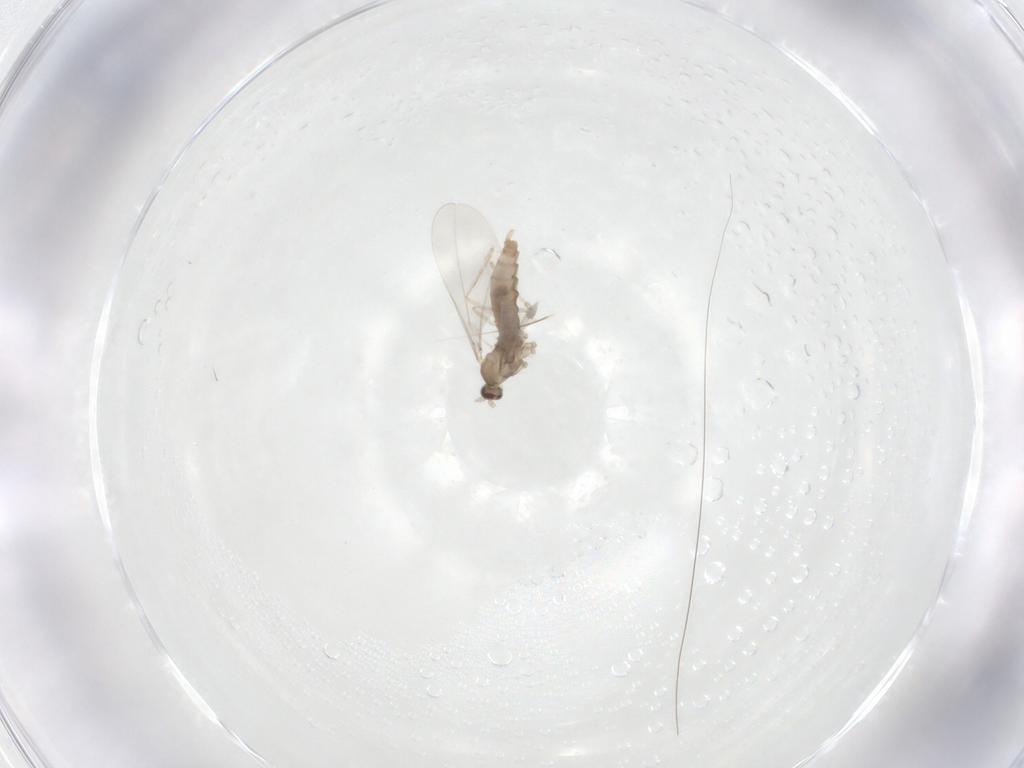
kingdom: Animalia
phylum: Arthropoda
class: Insecta
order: Diptera
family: Cecidomyiidae
